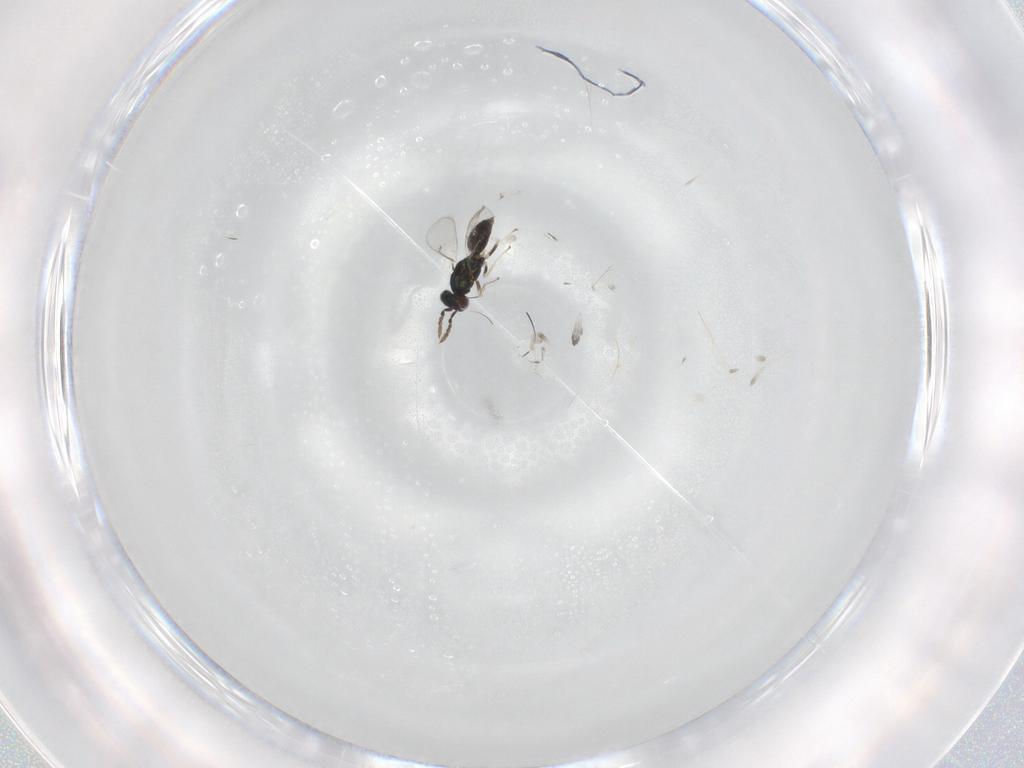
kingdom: Animalia
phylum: Arthropoda
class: Insecta
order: Hymenoptera
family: Eulophidae
